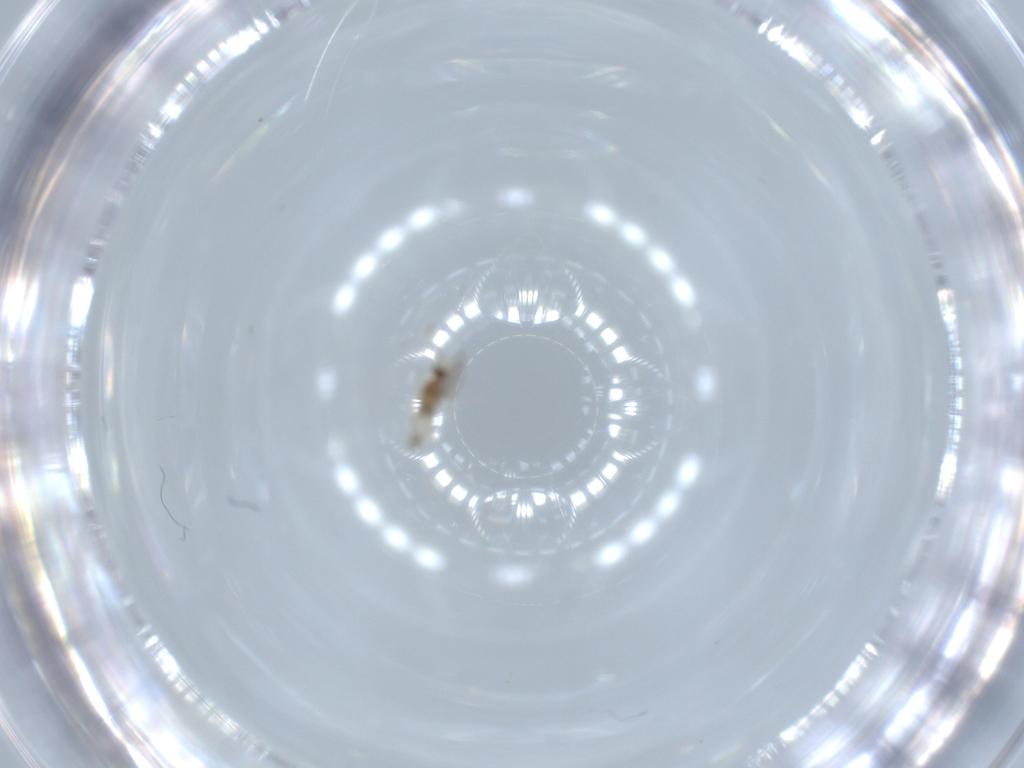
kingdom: Animalia
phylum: Arthropoda
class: Insecta
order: Diptera
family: Cecidomyiidae
